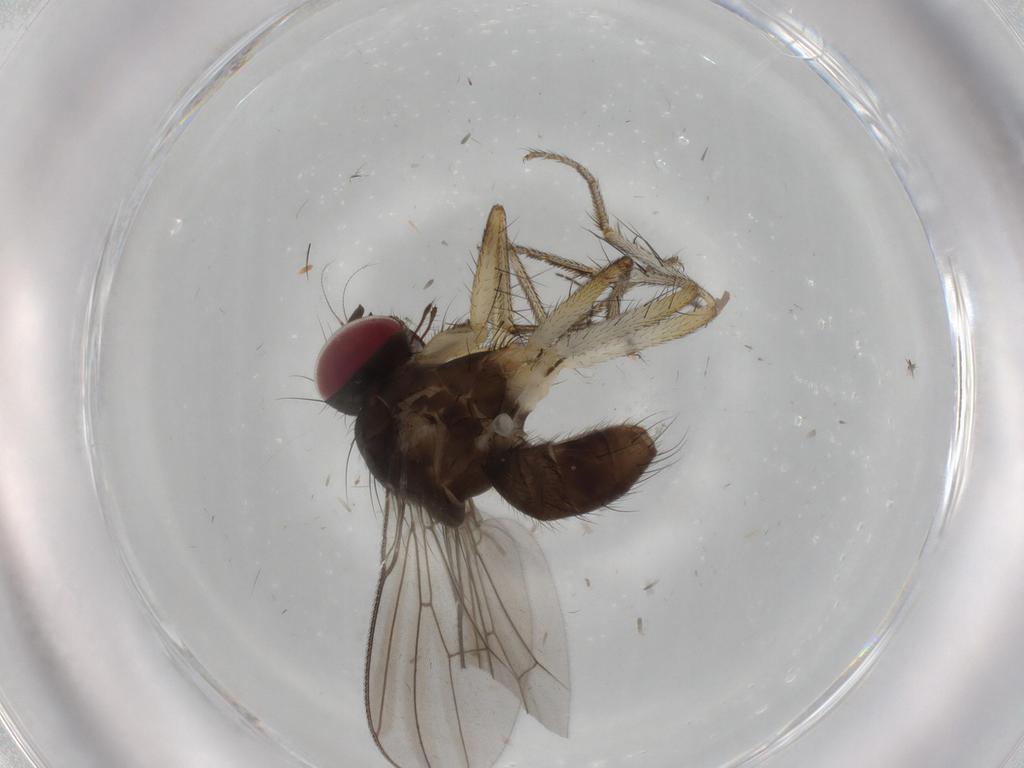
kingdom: Animalia
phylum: Arthropoda
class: Insecta
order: Diptera
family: Anthomyiidae
